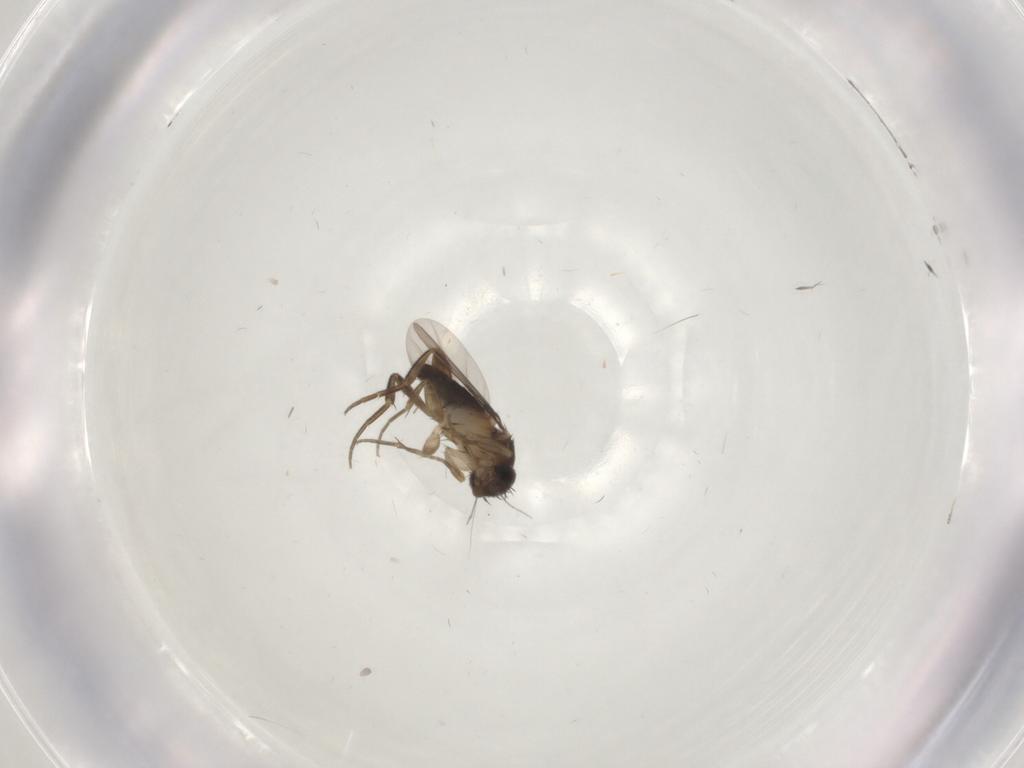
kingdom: Animalia
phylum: Arthropoda
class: Insecta
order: Diptera
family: Phoridae
